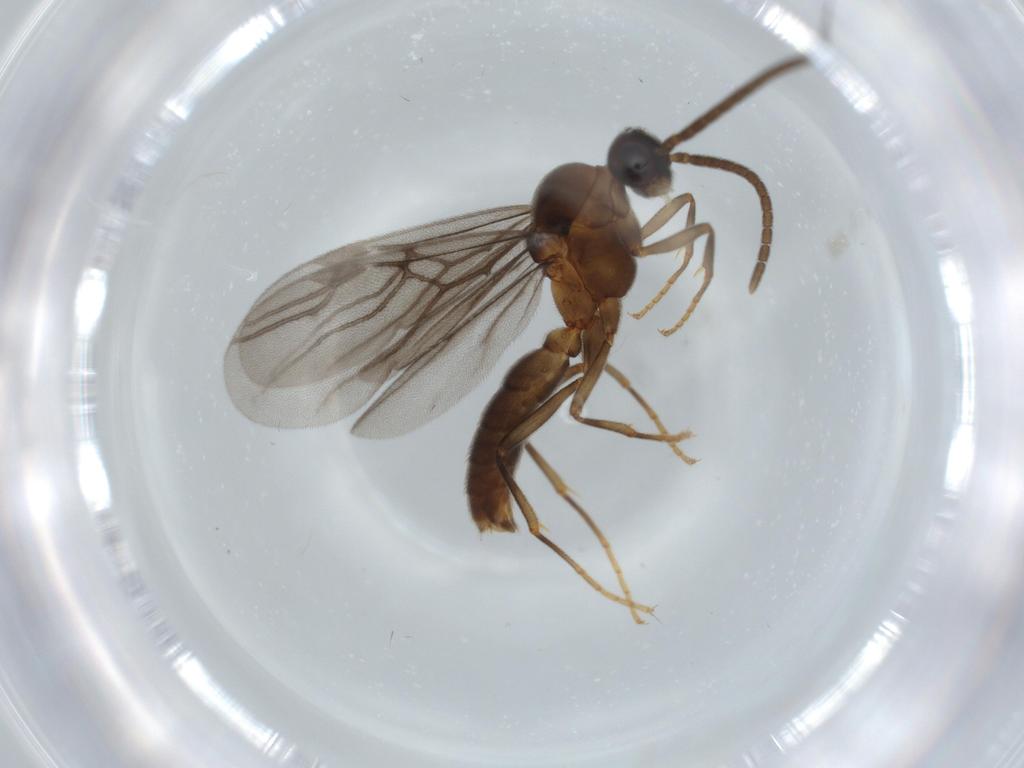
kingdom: Animalia
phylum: Arthropoda
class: Insecta
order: Hymenoptera
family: Formicidae
